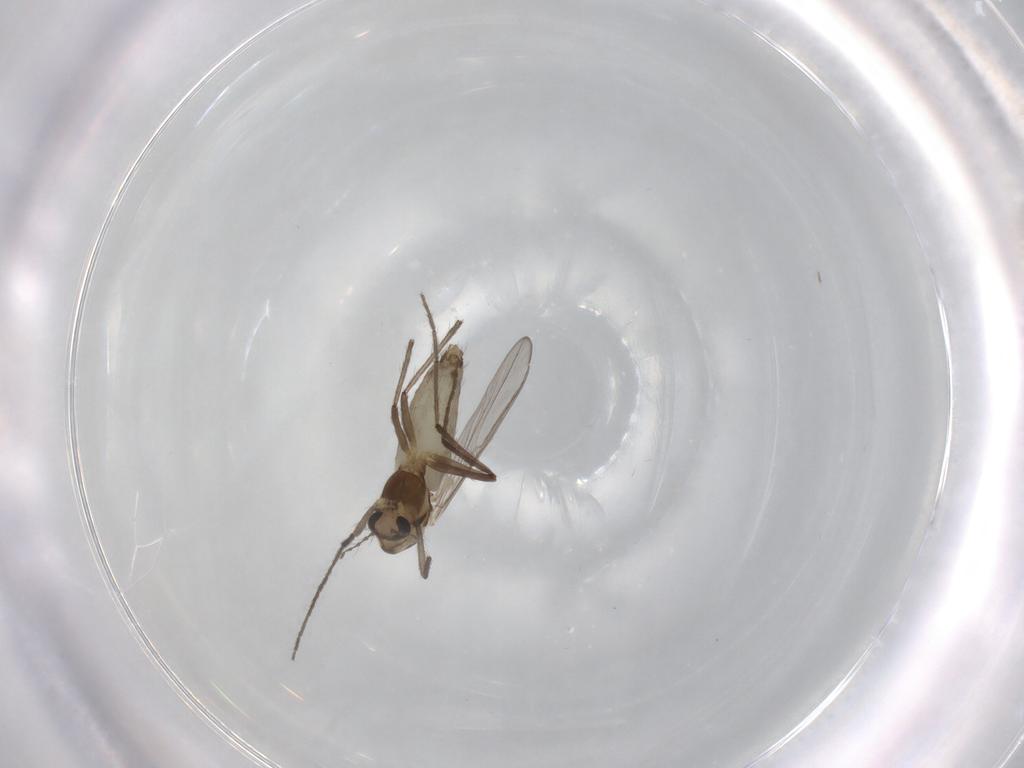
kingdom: Animalia
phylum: Arthropoda
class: Insecta
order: Diptera
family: Chironomidae
